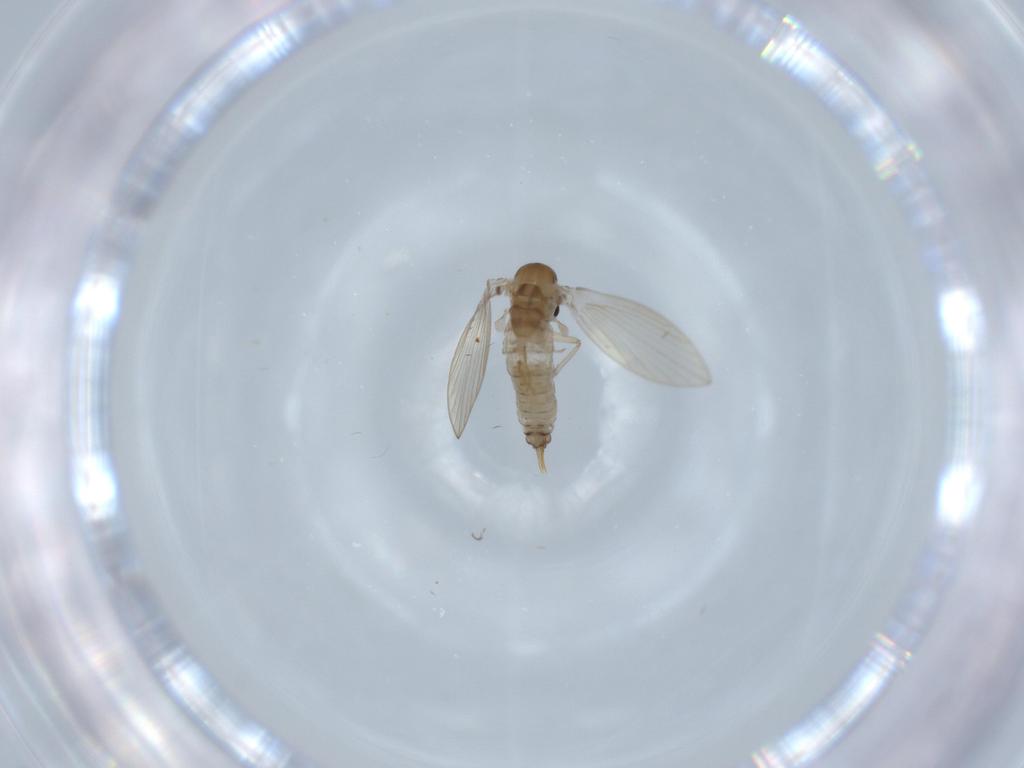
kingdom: Animalia
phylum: Arthropoda
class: Insecta
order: Diptera
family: Psychodidae
